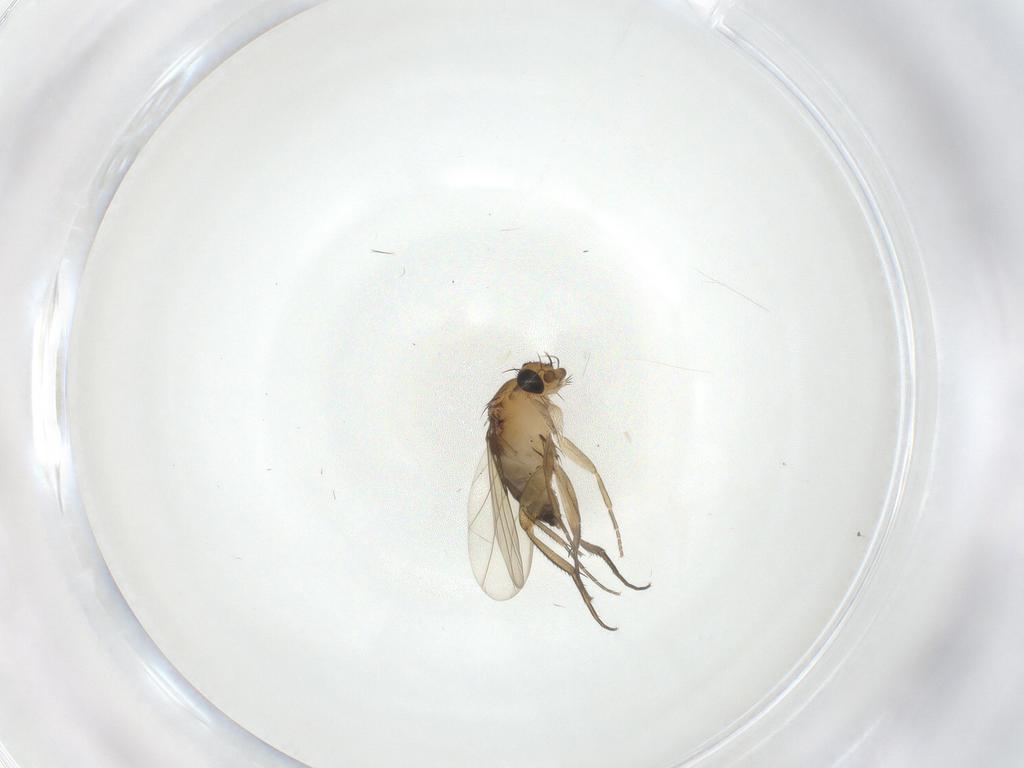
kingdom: Animalia
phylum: Arthropoda
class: Insecta
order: Diptera
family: Phoridae
